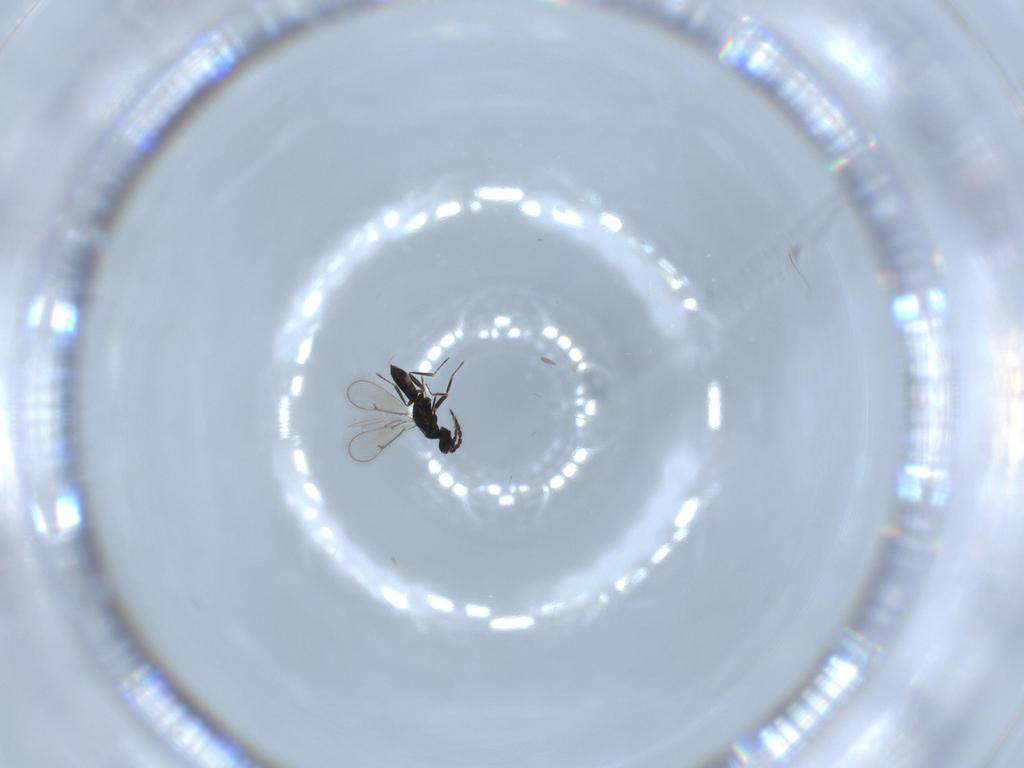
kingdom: Animalia
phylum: Arthropoda
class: Insecta
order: Hymenoptera
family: Eulophidae
